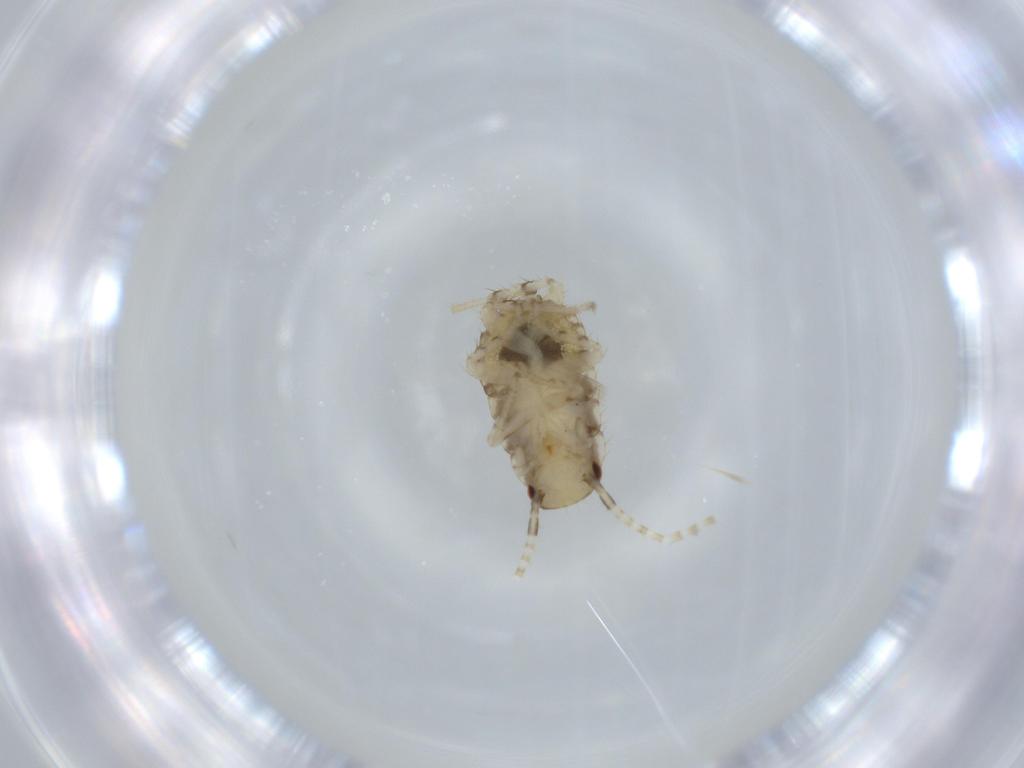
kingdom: Animalia
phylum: Arthropoda
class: Insecta
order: Blattodea
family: Ectobiidae
